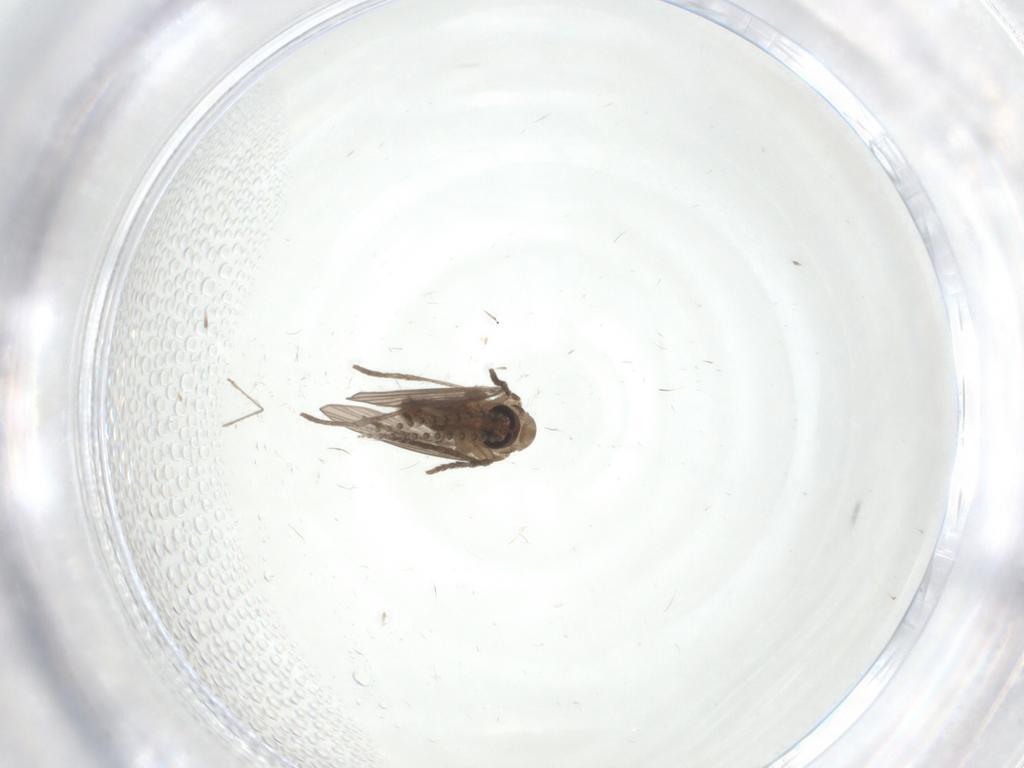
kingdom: Animalia
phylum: Arthropoda
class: Insecta
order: Diptera
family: Psychodidae
